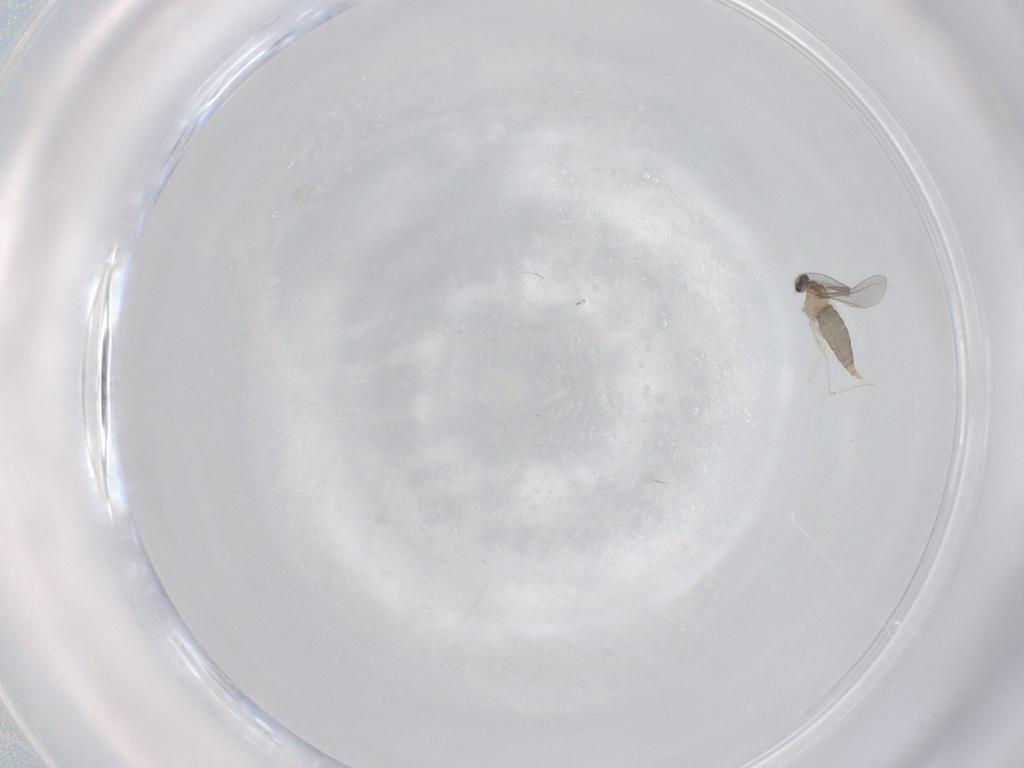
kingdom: Animalia
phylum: Arthropoda
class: Insecta
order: Diptera
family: Cecidomyiidae
